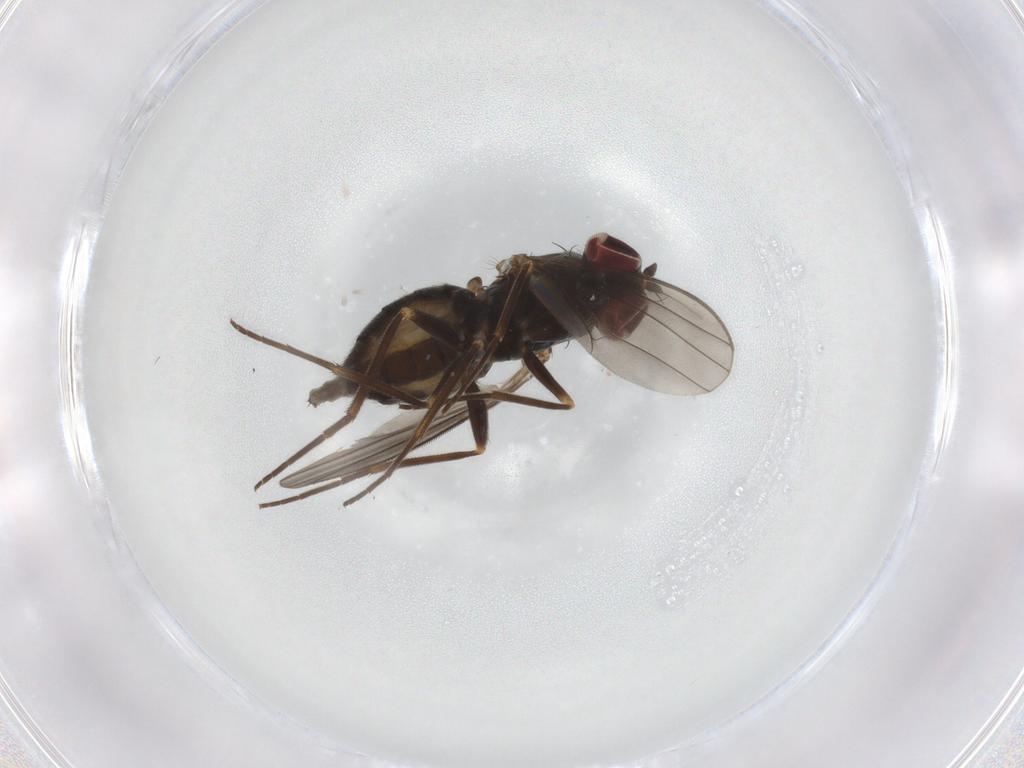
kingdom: Animalia
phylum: Arthropoda
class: Insecta
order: Diptera
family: Dolichopodidae
